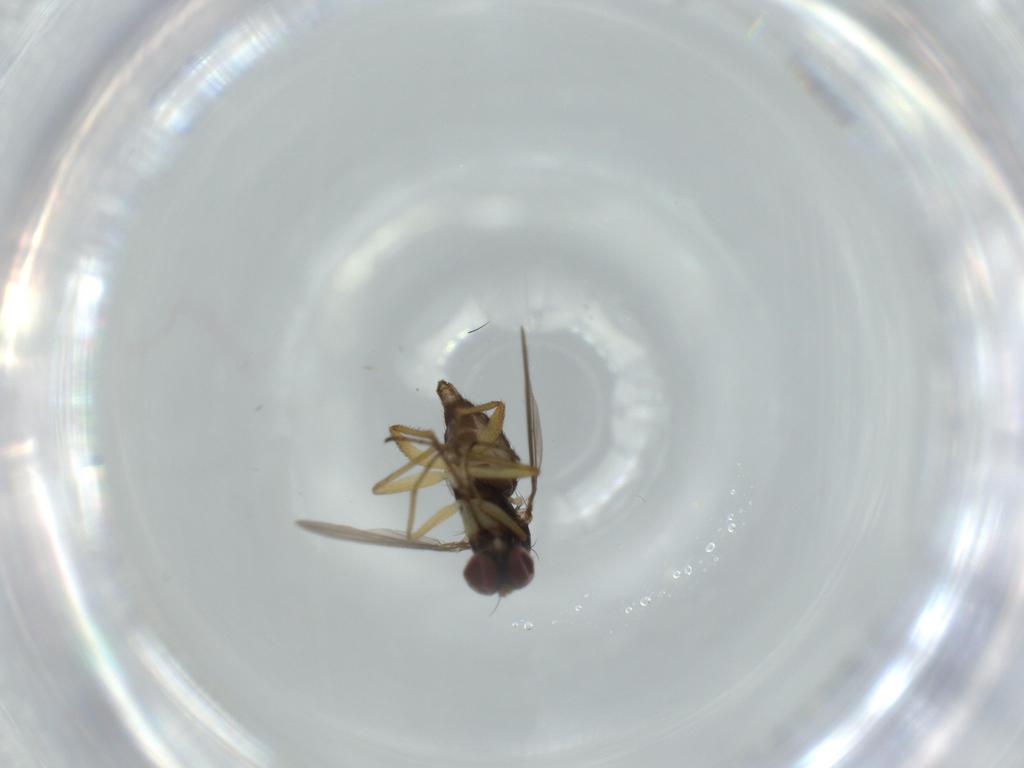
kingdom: Animalia
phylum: Arthropoda
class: Insecta
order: Diptera
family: Dolichopodidae
